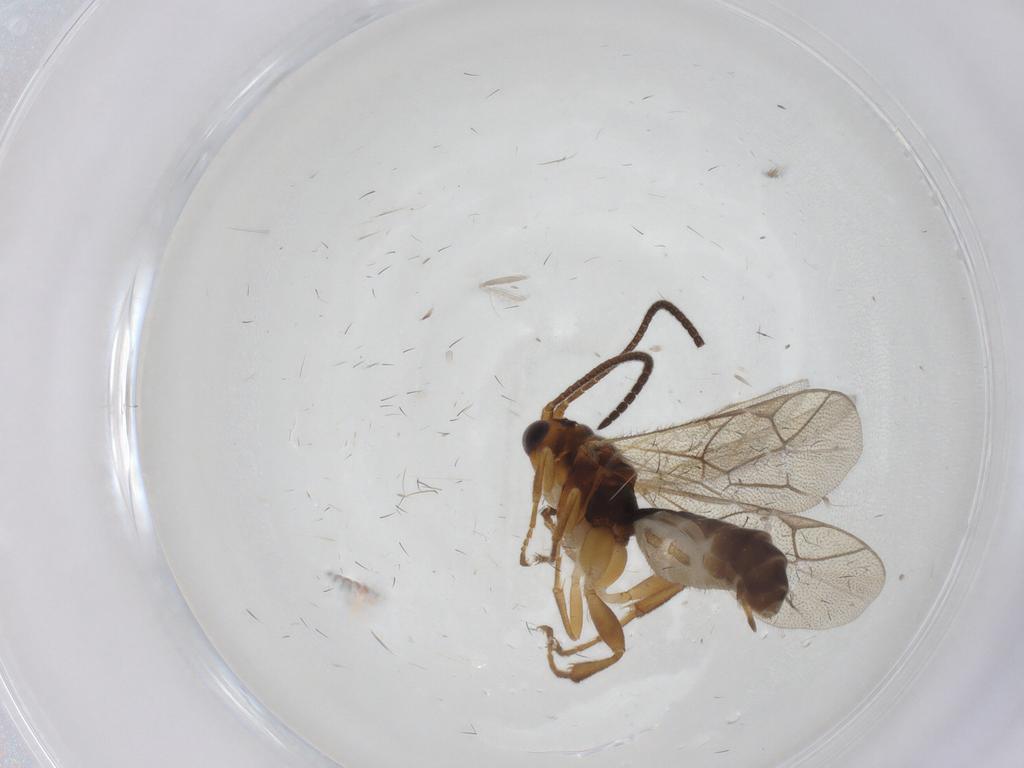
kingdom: Animalia
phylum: Arthropoda
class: Insecta
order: Hymenoptera
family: Ichneumonidae
